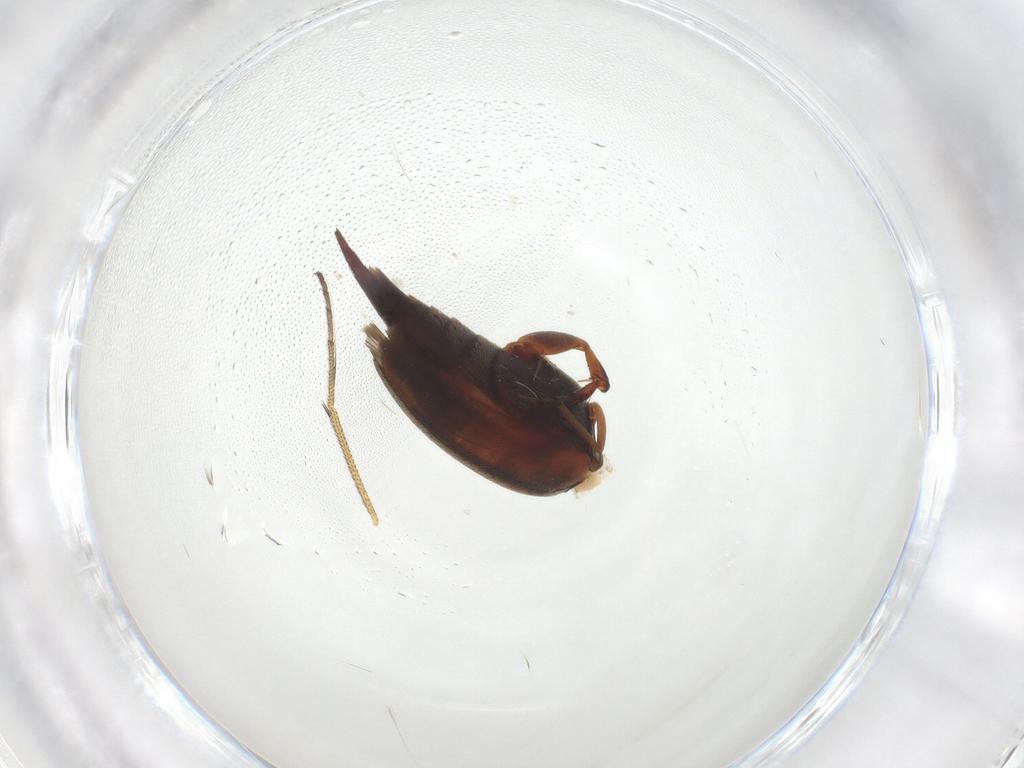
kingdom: Animalia
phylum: Arthropoda
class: Insecta
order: Coleoptera
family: Mordellidae
